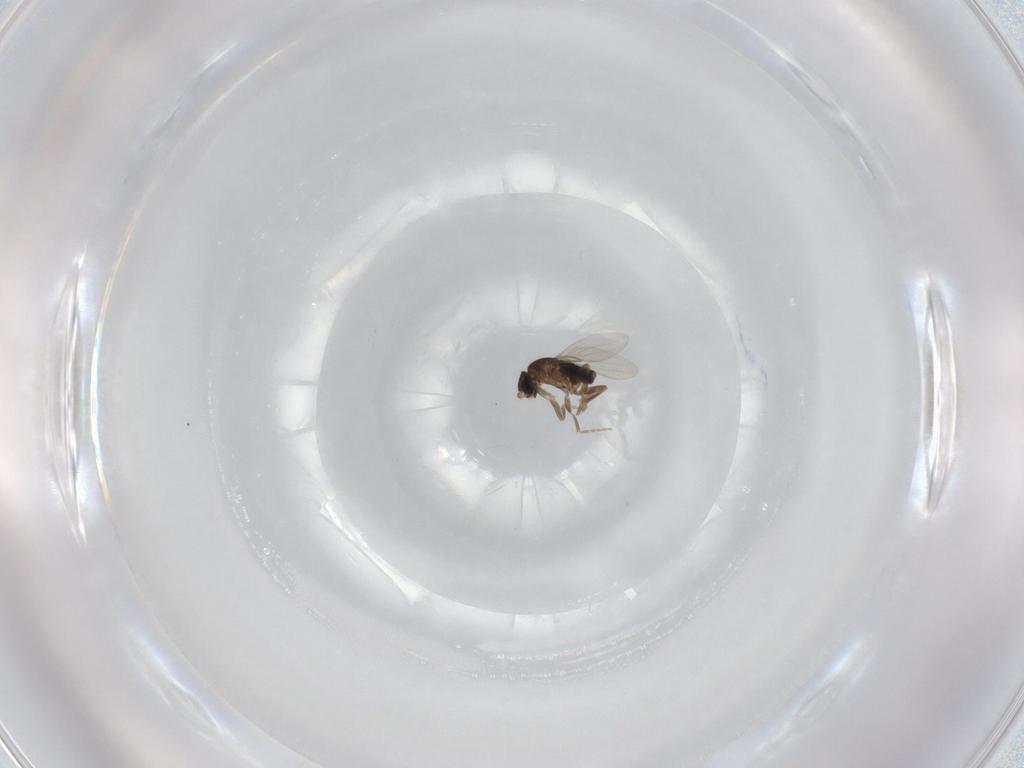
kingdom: Animalia
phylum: Arthropoda
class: Insecta
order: Diptera
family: Phoridae
